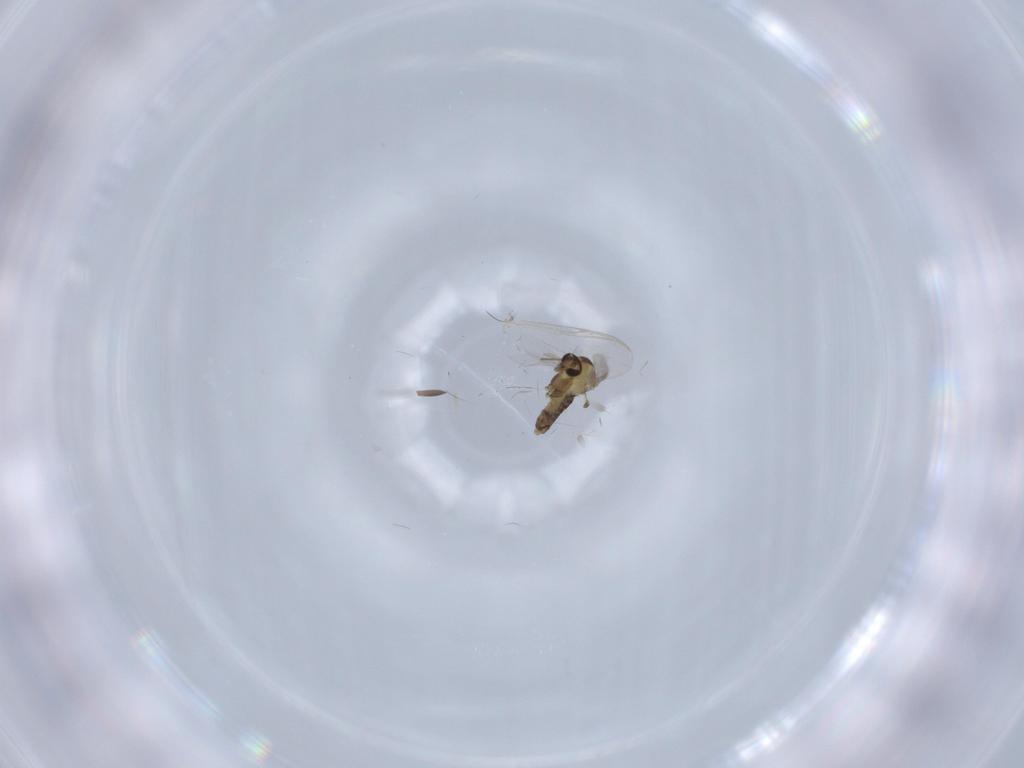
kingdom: Animalia
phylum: Arthropoda
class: Insecta
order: Diptera
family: Chironomidae
